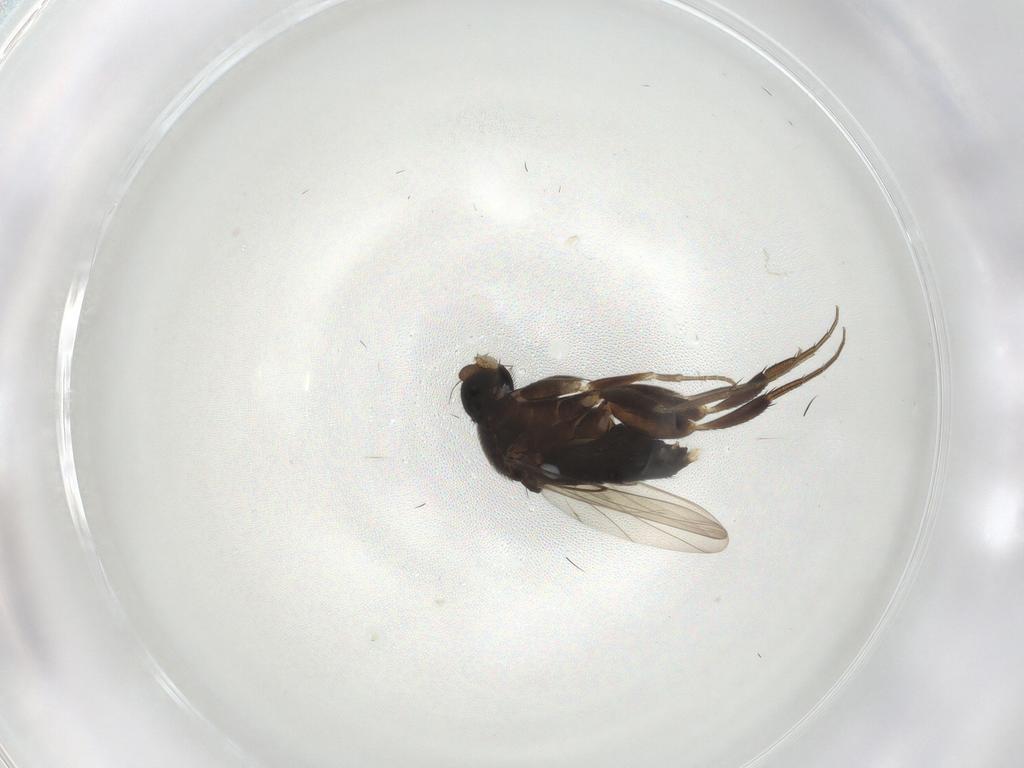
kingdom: Animalia
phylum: Arthropoda
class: Insecta
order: Diptera
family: Phoridae
